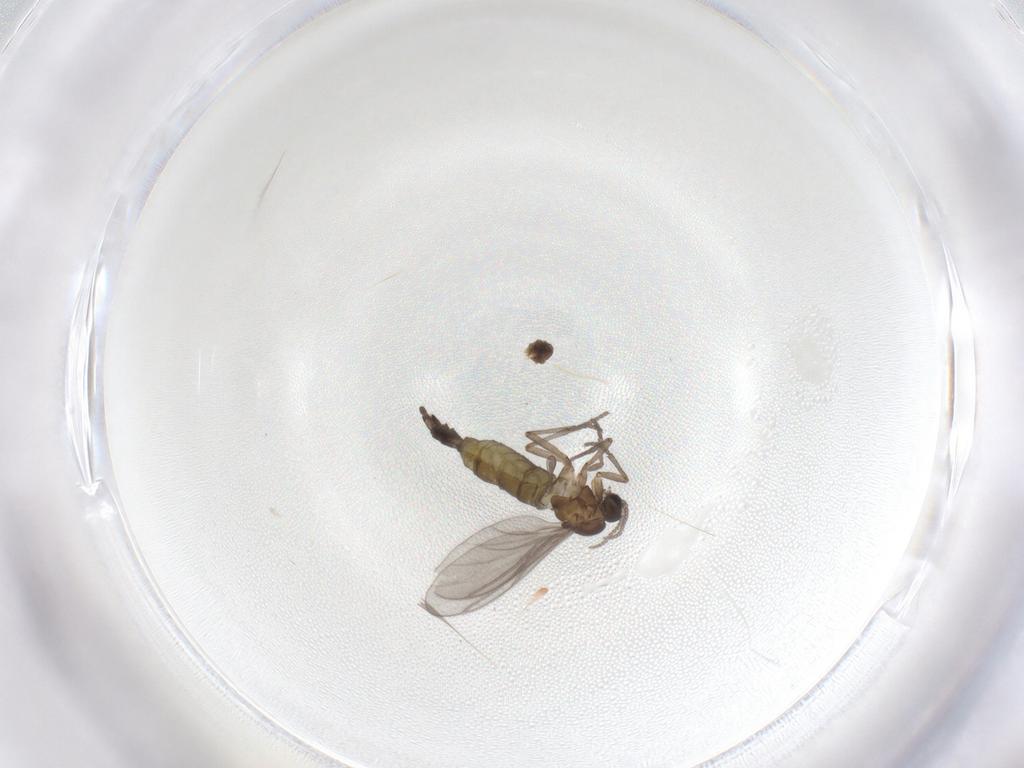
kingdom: Animalia
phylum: Arthropoda
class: Insecta
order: Diptera
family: Sciaridae
